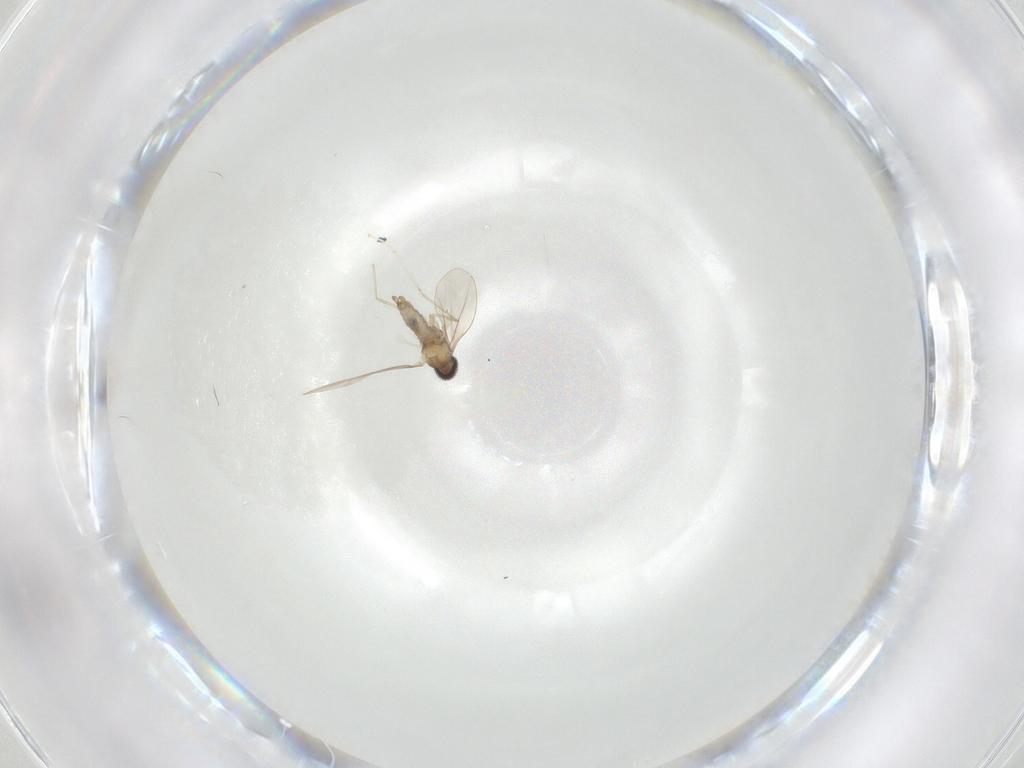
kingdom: Animalia
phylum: Arthropoda
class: Insecta
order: Diptera
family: Cecidomyiidae
